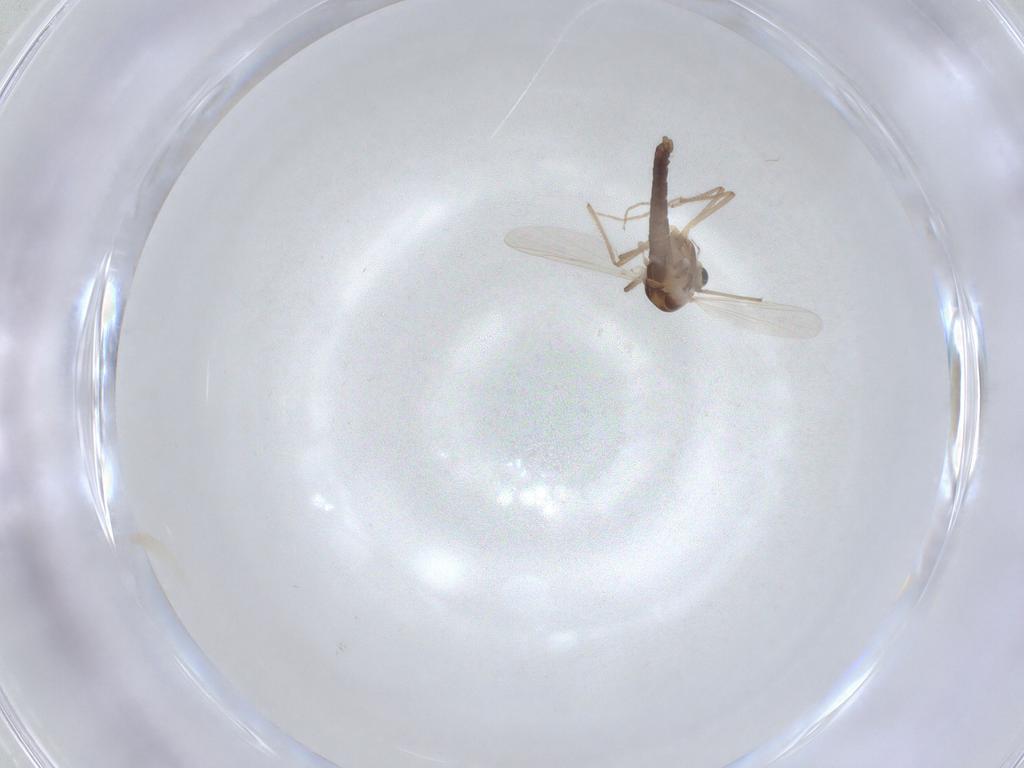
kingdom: Animalia
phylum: Arthropoda
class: Insecta
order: Diptera
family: Chironomidae
